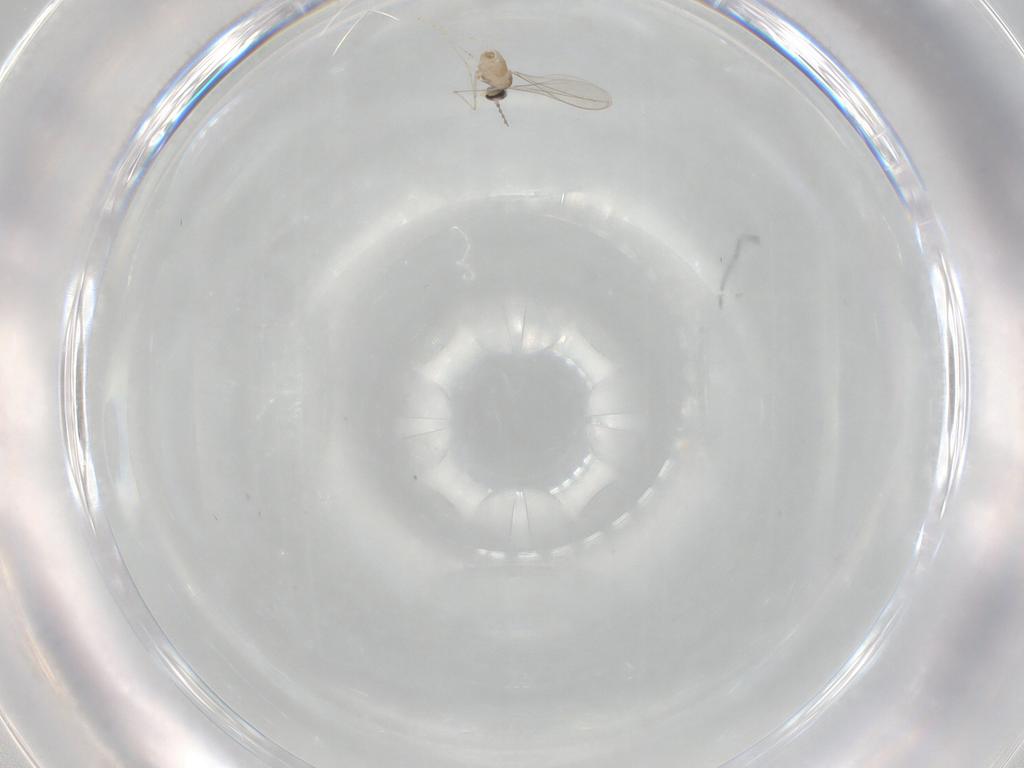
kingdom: Animalia
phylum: Arthropoda
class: Insecta
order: Diptera
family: Cecidomyiidae
